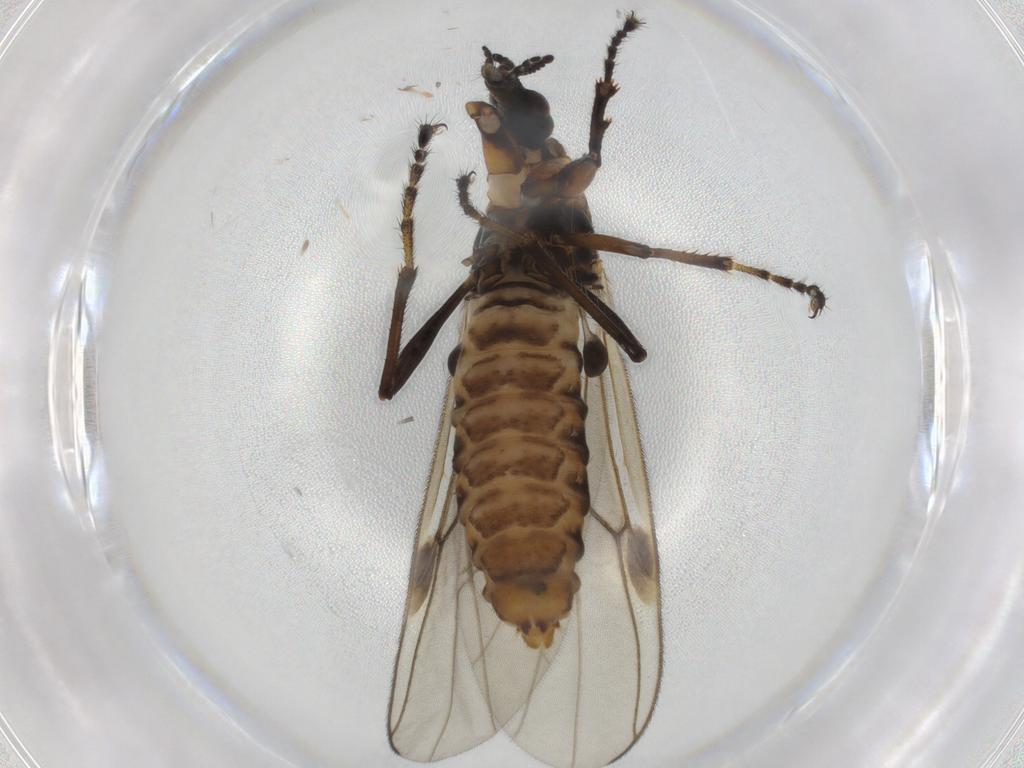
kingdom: Animalia
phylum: Arthropoda
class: Insecta
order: Diptera
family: Bibionidae
